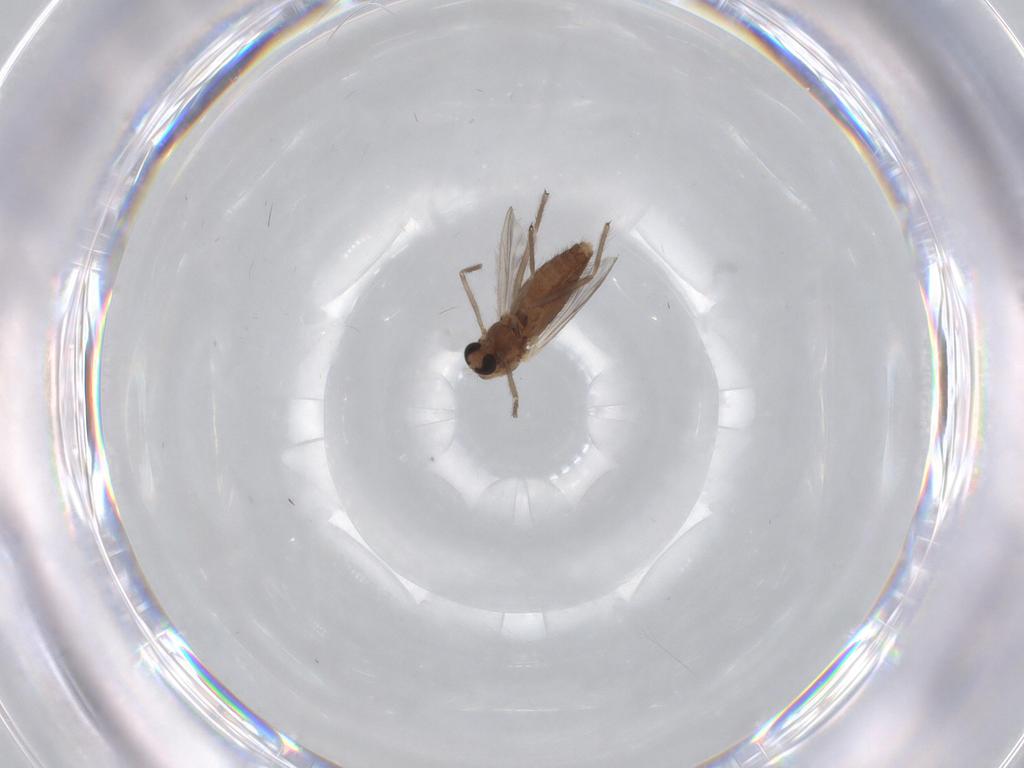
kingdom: Animalia
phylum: Arthropoda
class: Insecta
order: Diptera
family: Chironomidae
